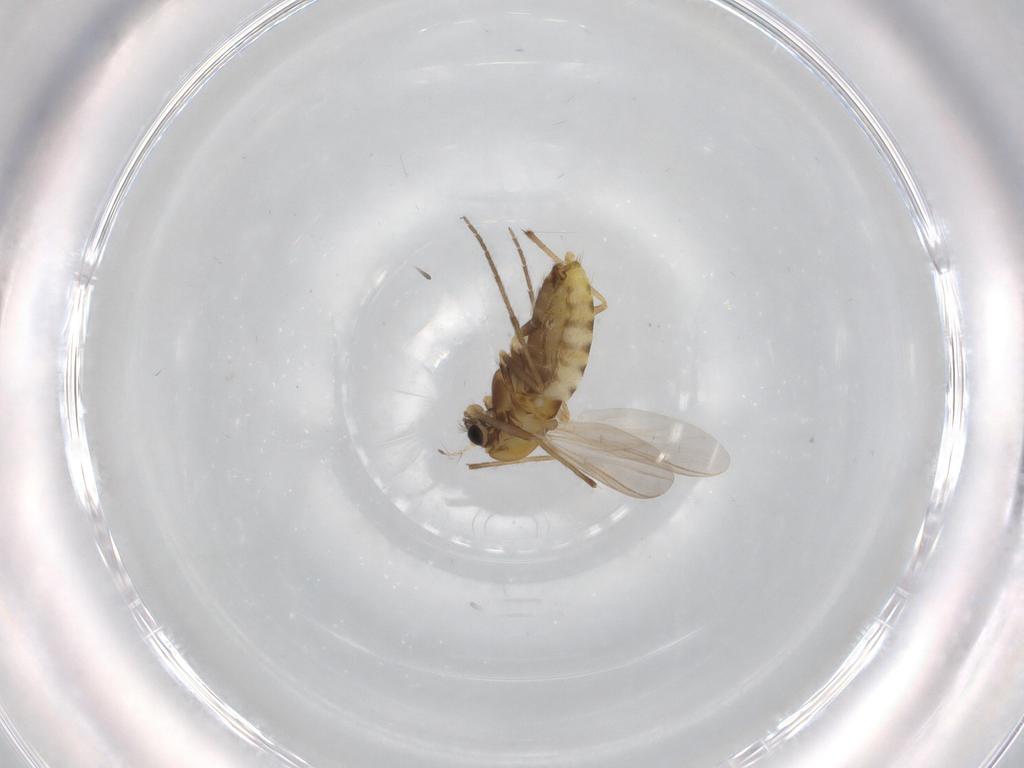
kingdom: Animalia
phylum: Arthropoda
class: Insecta
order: Diptera
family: Chironomidae
